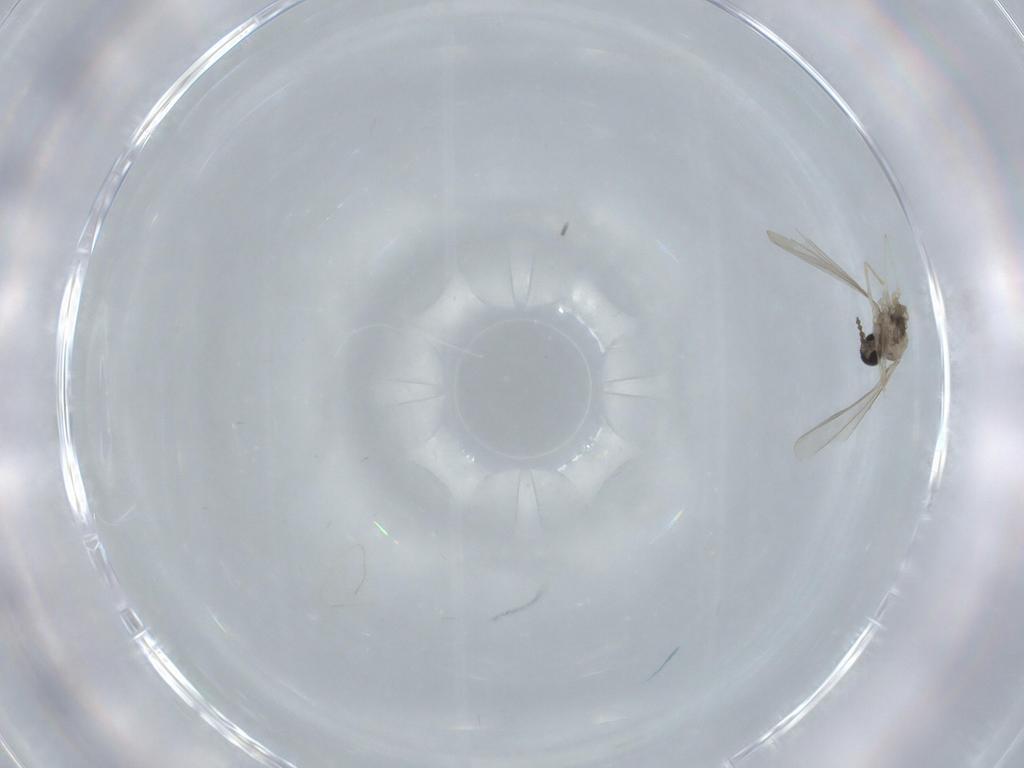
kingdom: Animalia
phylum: Arthropoda
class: Insecta
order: Diptera
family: Cecidomyiidae
